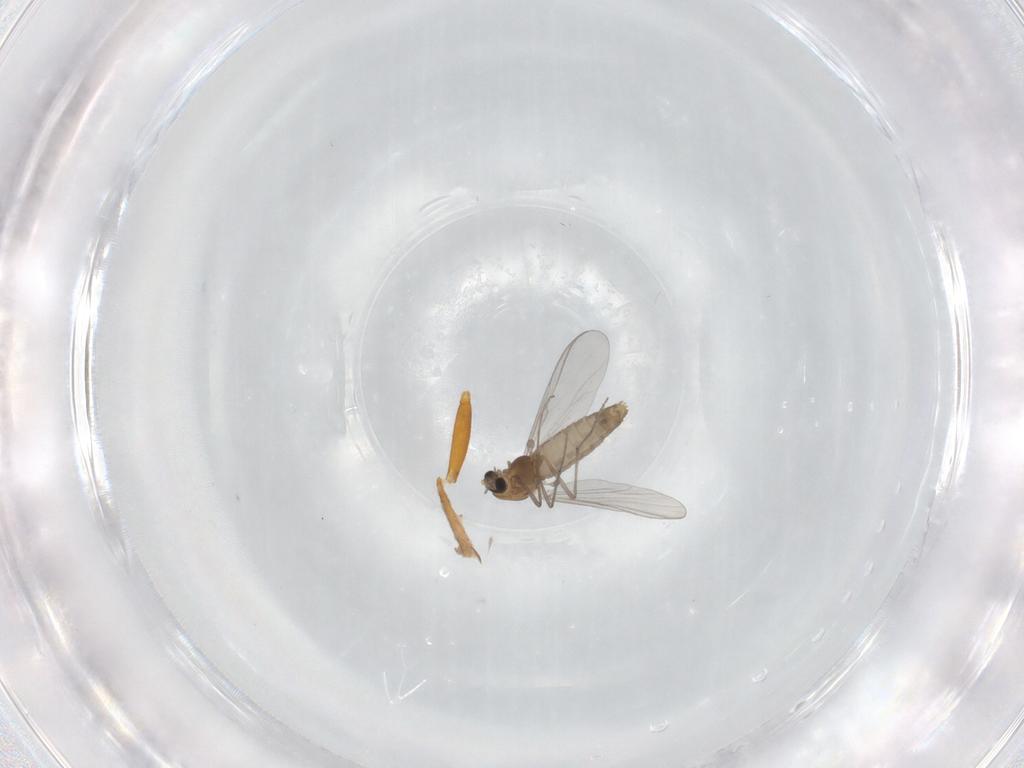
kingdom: Animalia
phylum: Arthropoda
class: Insecta
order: Diptera
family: Chironomidae
